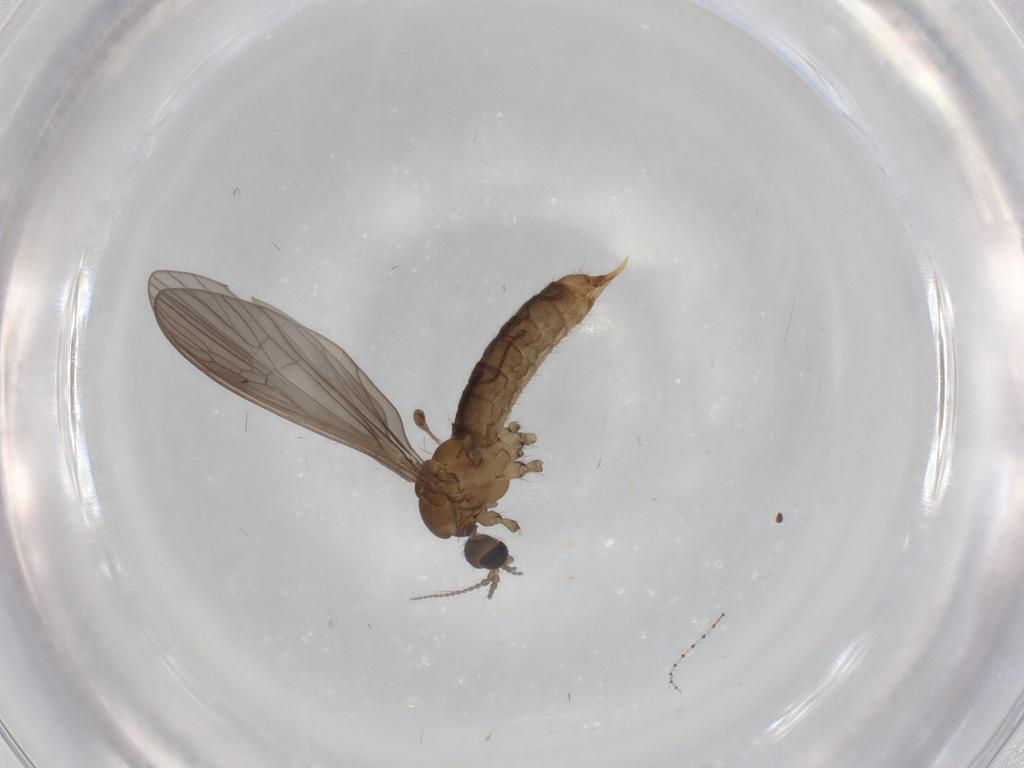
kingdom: Animalia
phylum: Arthropoda
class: Insecta
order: Diptera
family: Limoniidae
